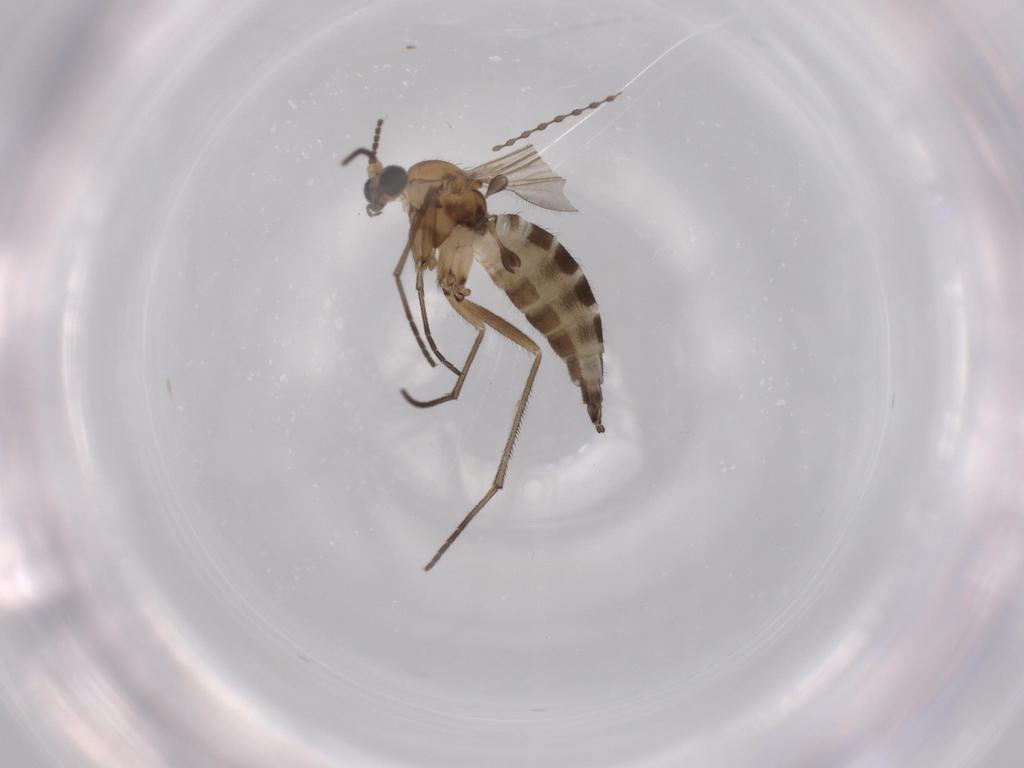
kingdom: Animalia
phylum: Arthropoda
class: Insecta
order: Diptera
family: Sciaridae
